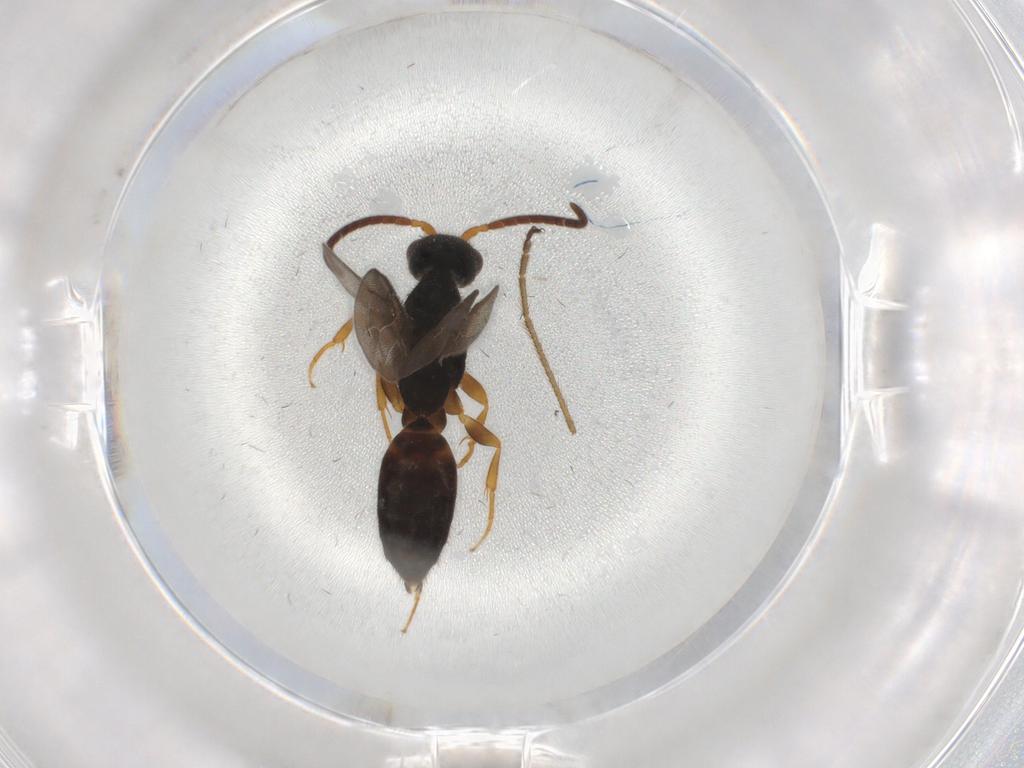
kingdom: Animalia
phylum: Arthropoda
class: Insecta
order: Hymenoptera
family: Bethylidae
